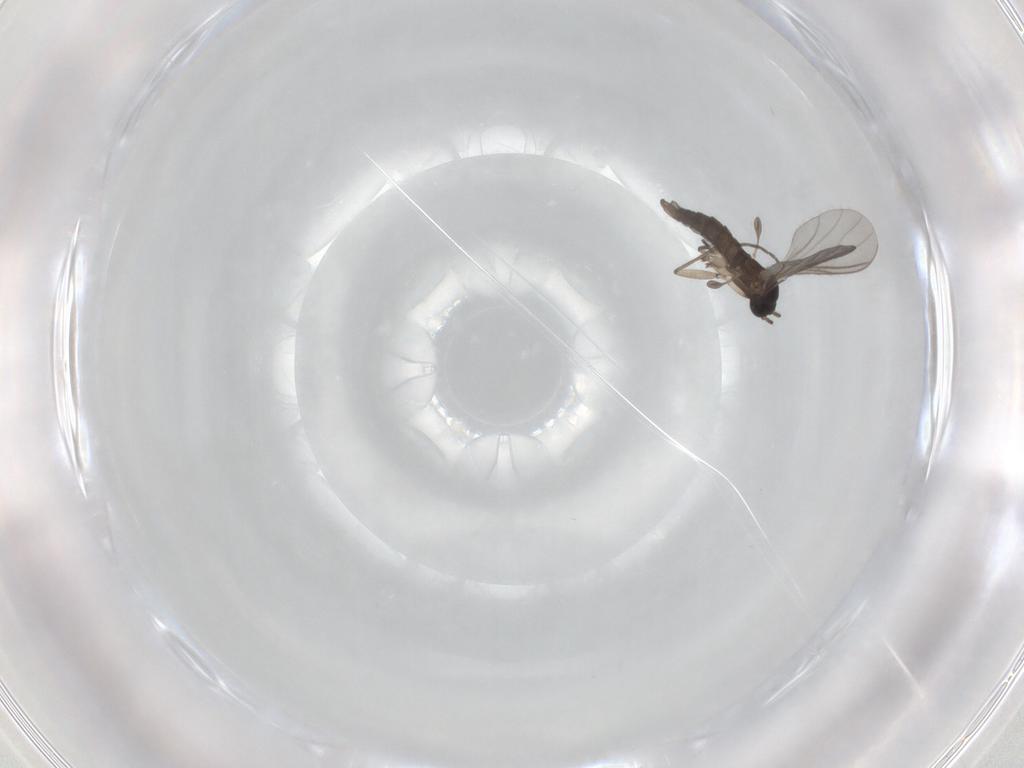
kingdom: Animalia
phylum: Arthropoda
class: Insecta
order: Diptera
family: Sciaridae
